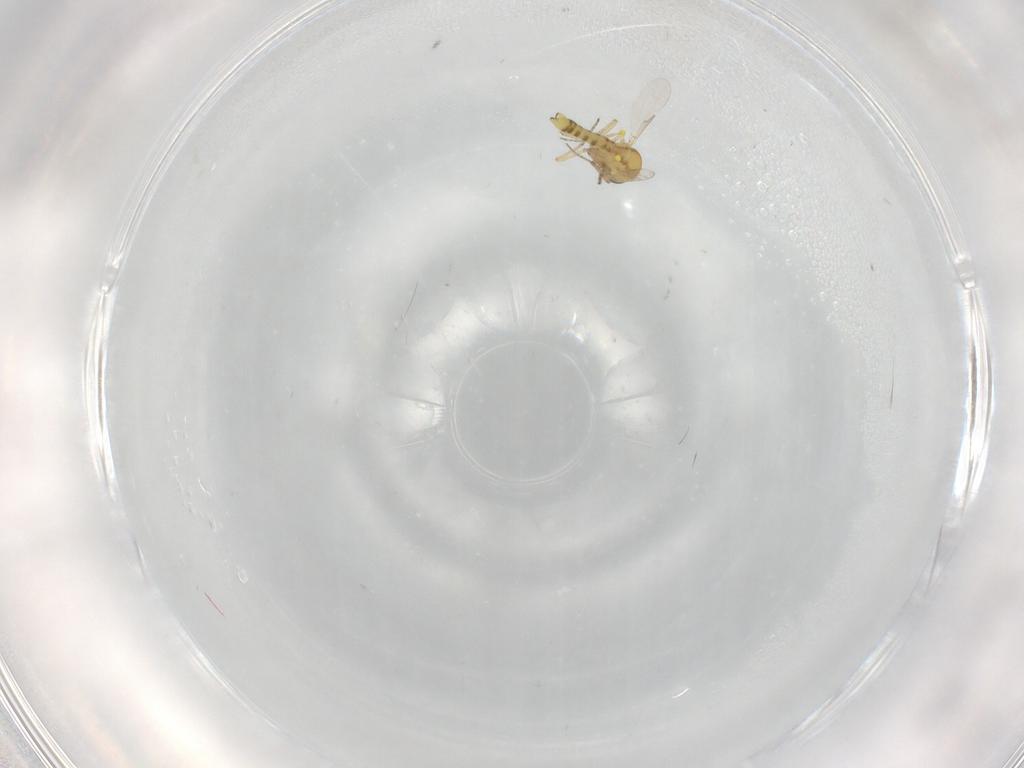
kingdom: Animalia
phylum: Arthropoda
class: Insecta
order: Diptera
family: Ceratopogonidae
